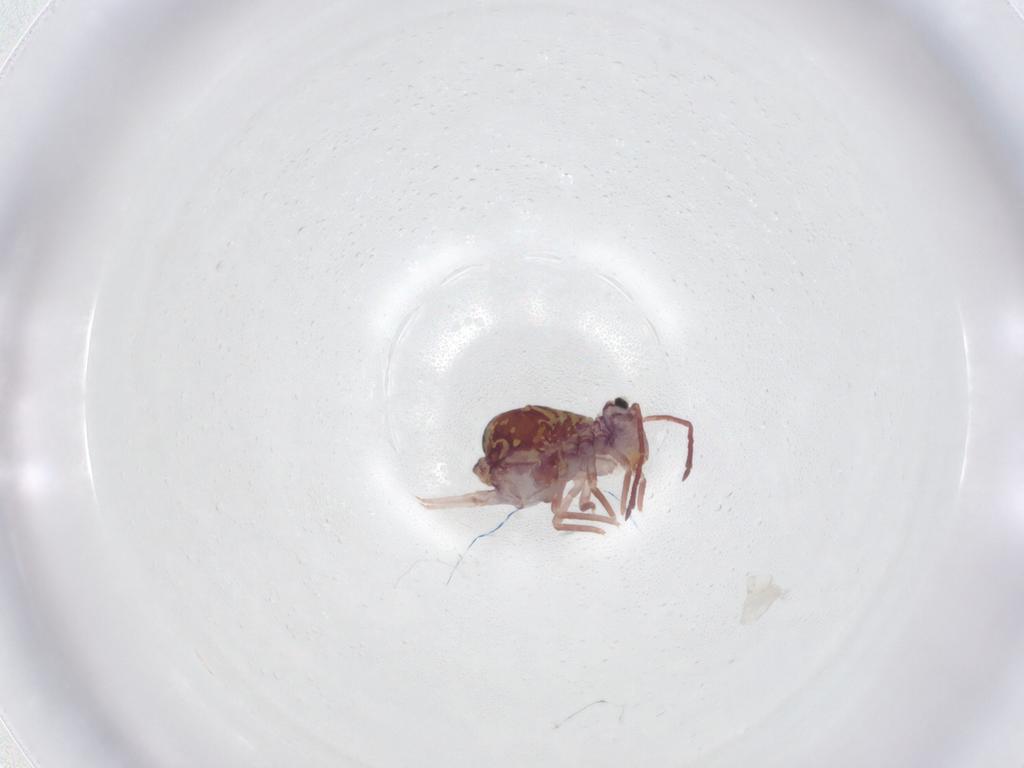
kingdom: Animalia
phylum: Arthropoda
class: Collembola
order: Symphypleona
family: Dicyrtomidae
